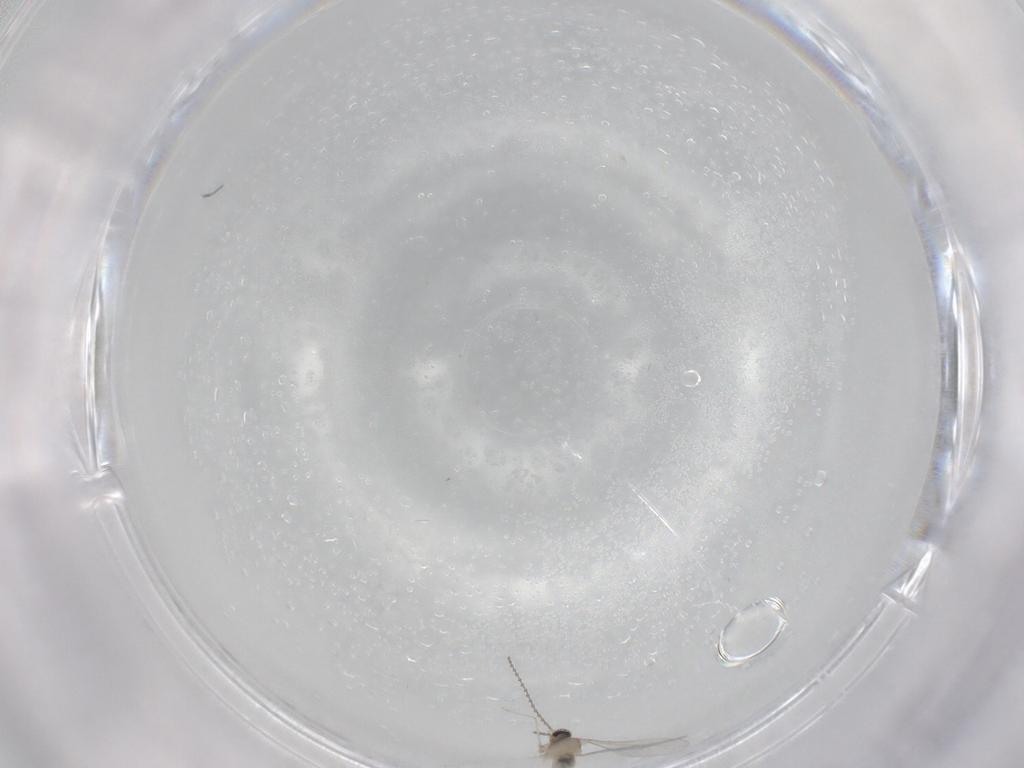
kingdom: Animalia
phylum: Arthropoda
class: Insecta
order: Diptera
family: Cecidomyiidae
